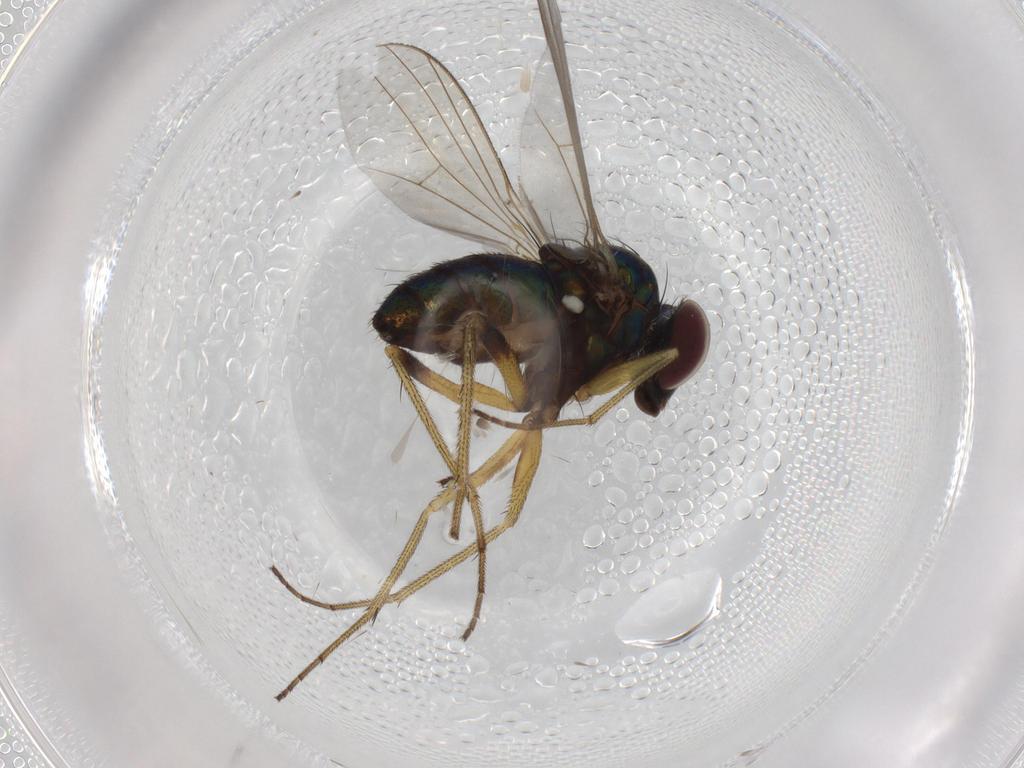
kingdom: Animalia
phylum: Arthropoda
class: Insecta
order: Diptera
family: Dolichopodidae
